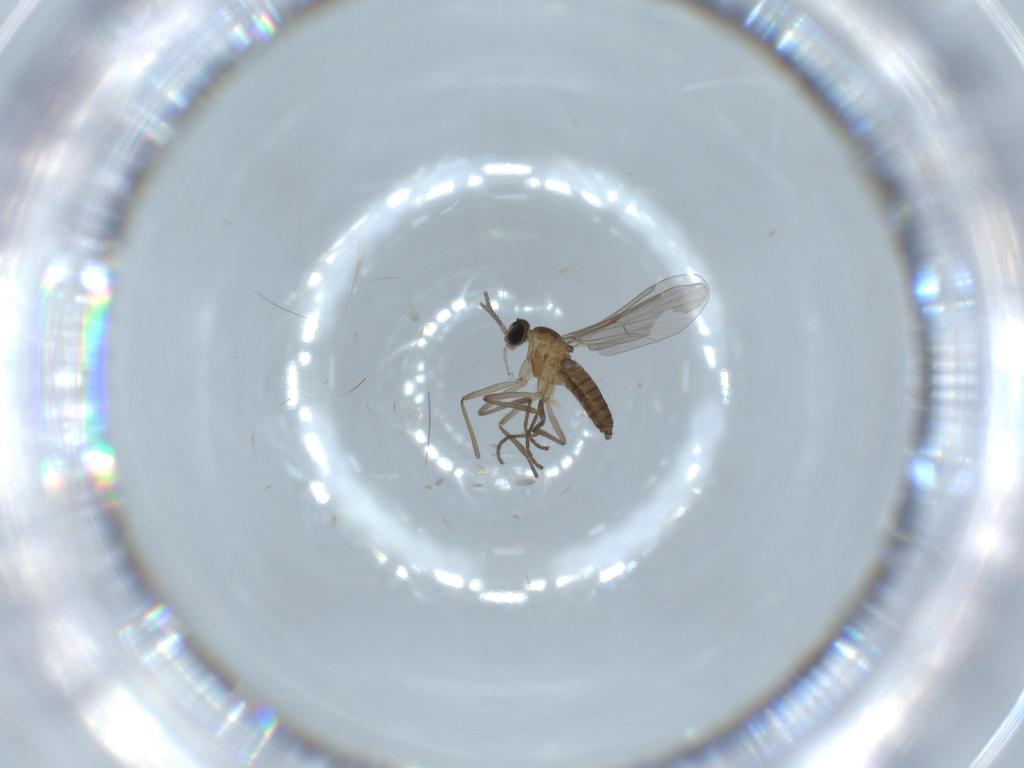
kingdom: Animalia
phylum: Arthropoda
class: Insecta
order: Diptera
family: Cecidomyiidae
